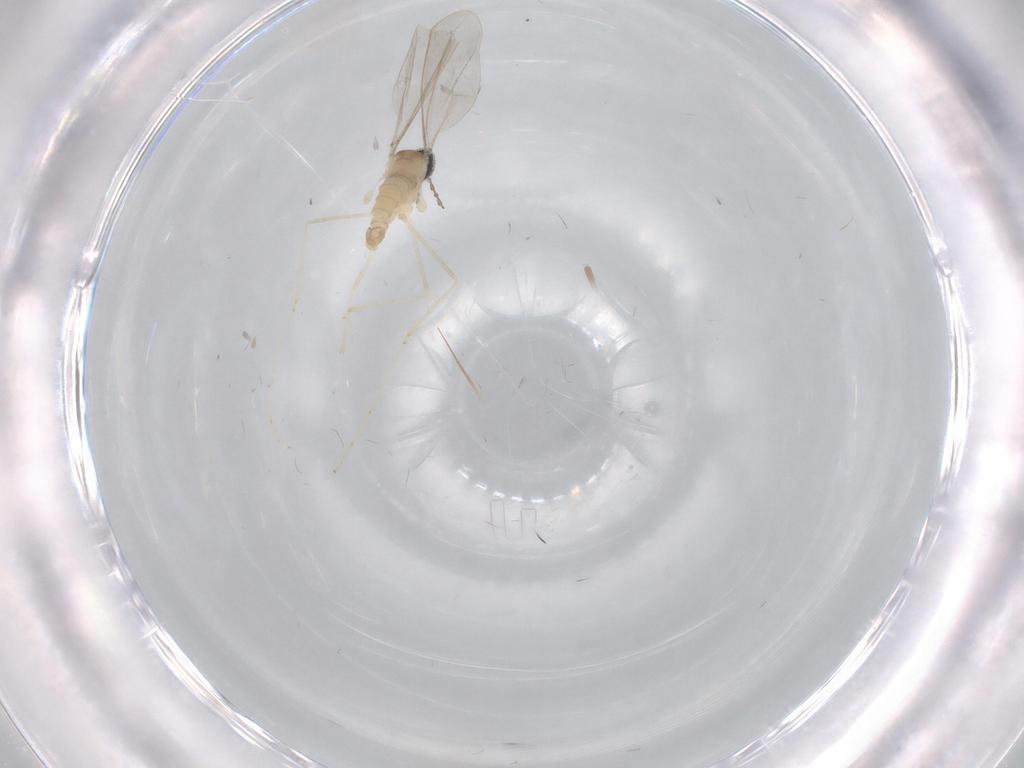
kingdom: Animalia
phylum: Arthropoda
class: Insecta
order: Diptera
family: Cecidomyiidae
